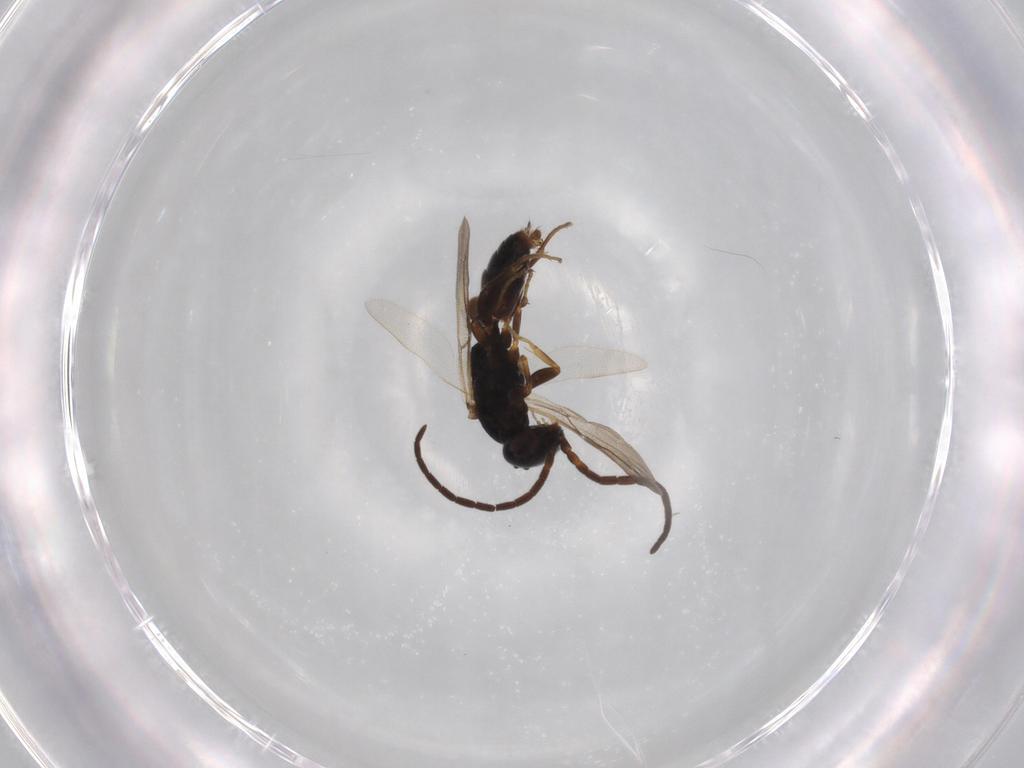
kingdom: Animalia
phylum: Arthropoda
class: Insecta
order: Hymenoptera
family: Bethylidae
